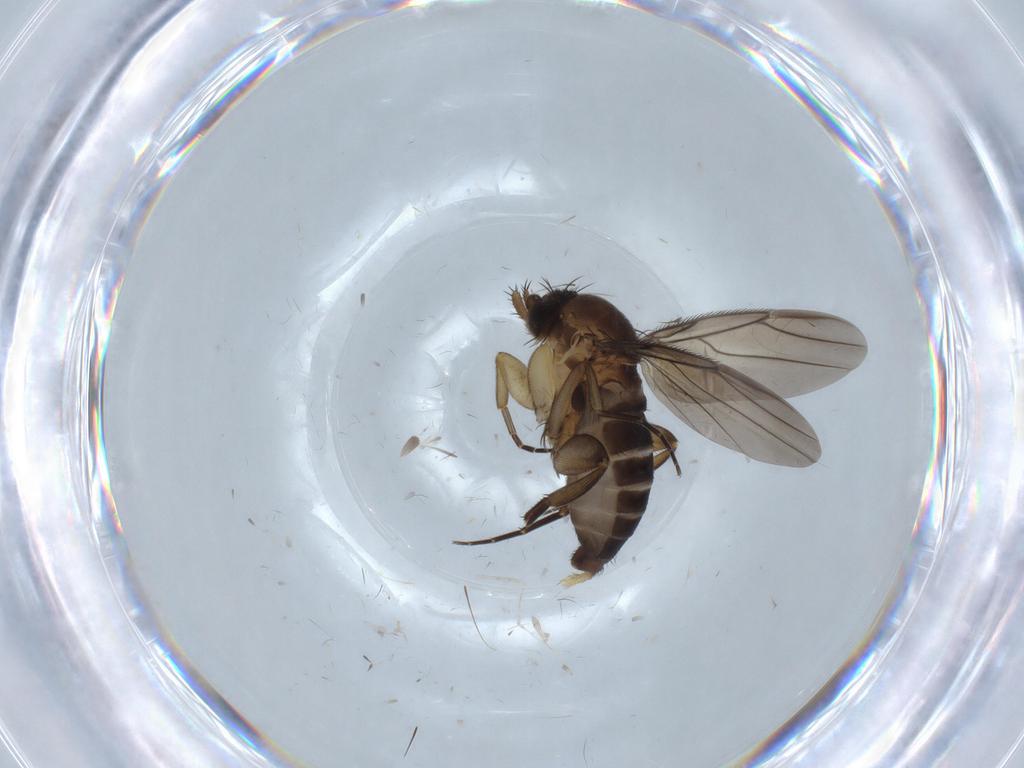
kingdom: Animalia
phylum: Arthropoda
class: Insecta
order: Diptera
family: Phoridae
